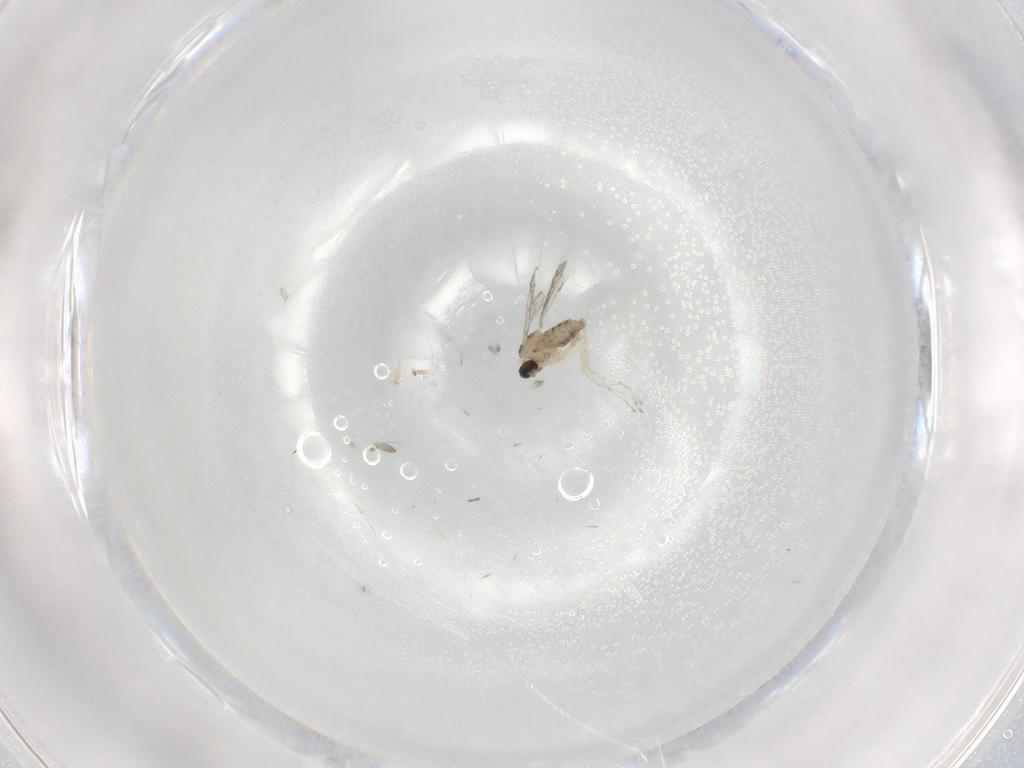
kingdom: Animalia
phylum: Arthropoda
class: Insecta
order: Diptera
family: Cecidomyiidae
